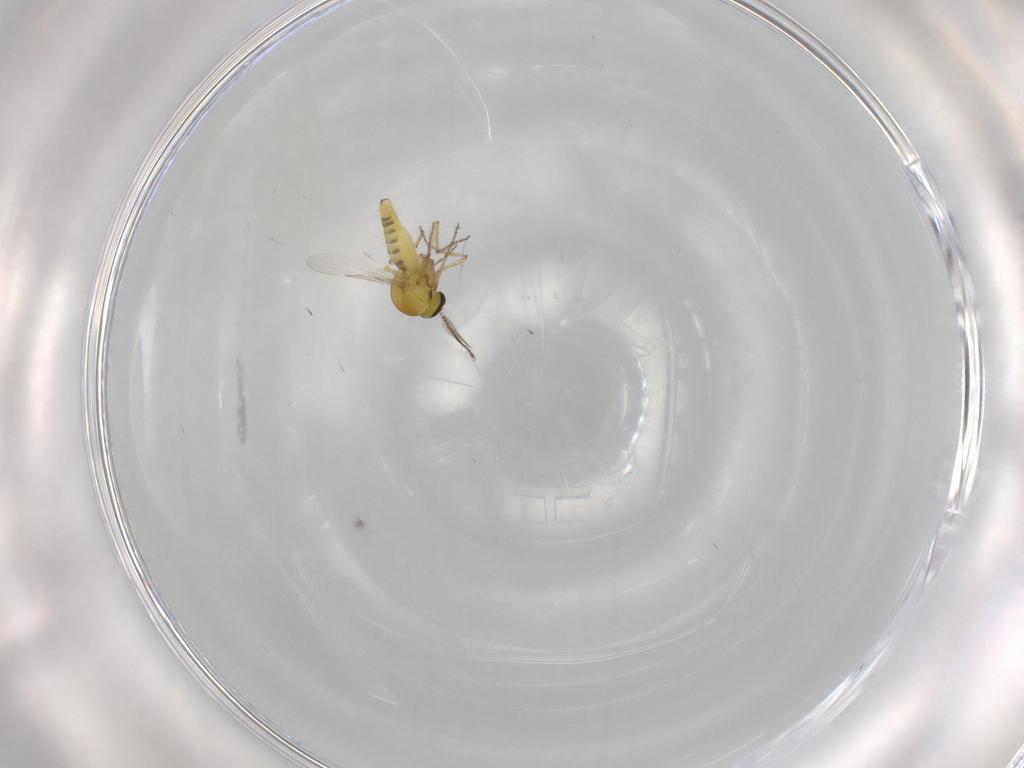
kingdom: Animalia
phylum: Arthropoda
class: Insecta
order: Diptera
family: Ceratopogonidae
